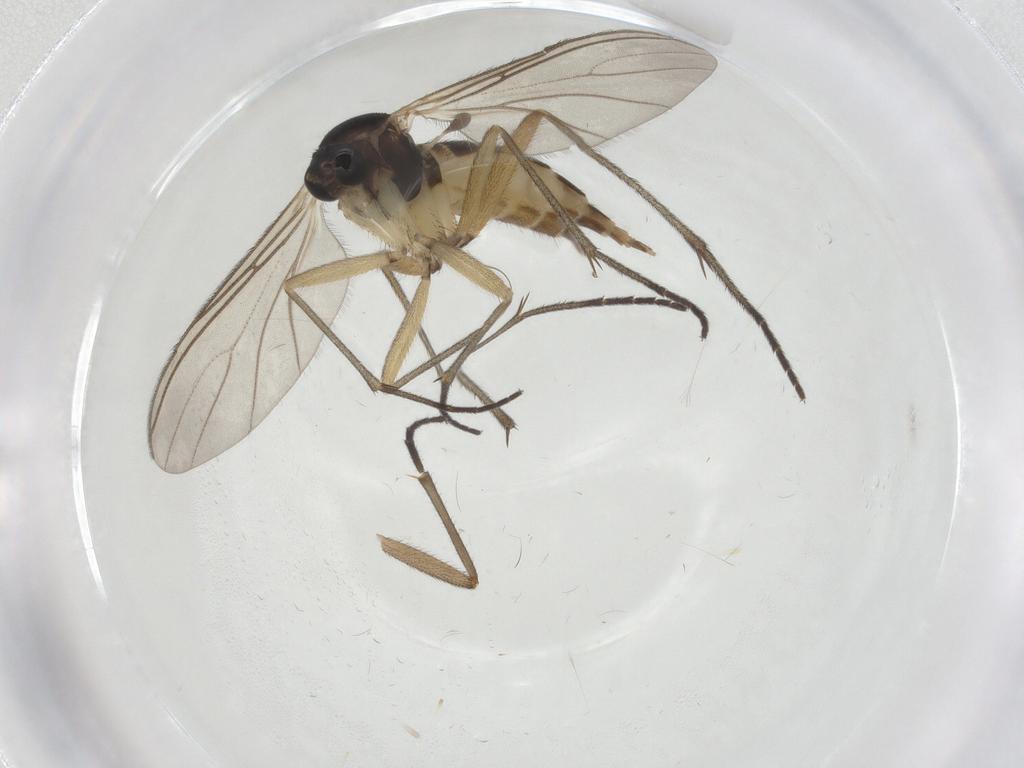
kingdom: Animalia
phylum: Arthropoda
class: Insecta
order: Diptera
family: Sciaridae
